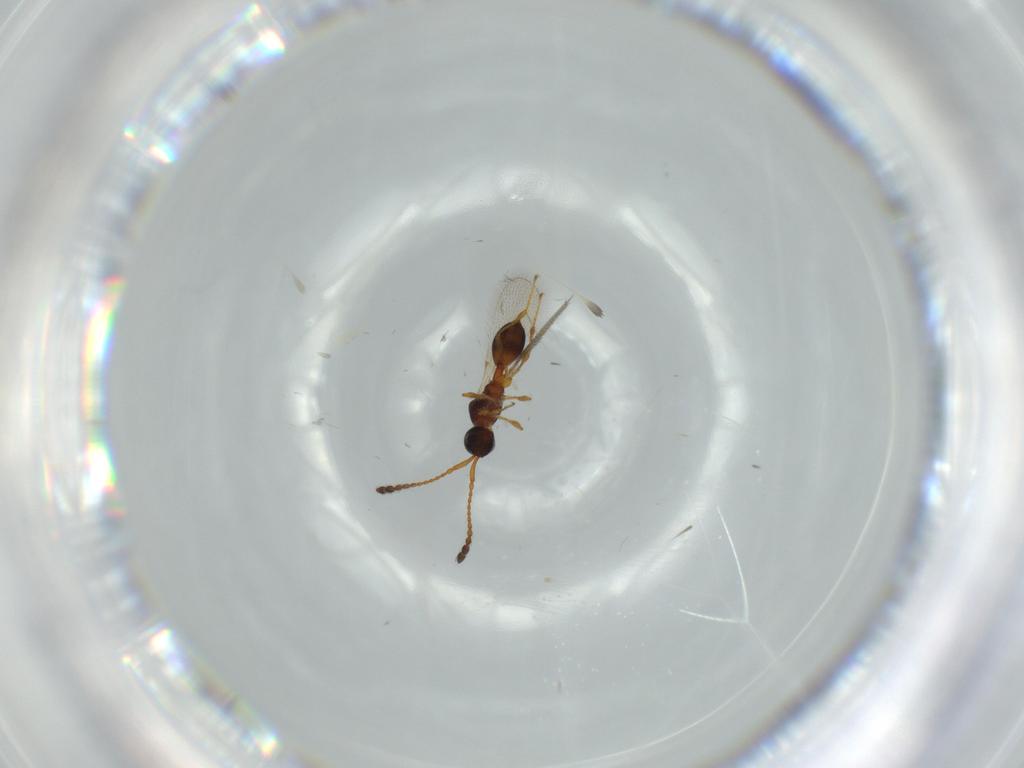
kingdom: Animalia
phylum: Arthropoda
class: Insecta
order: Hymenoptera
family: Diapriidae
